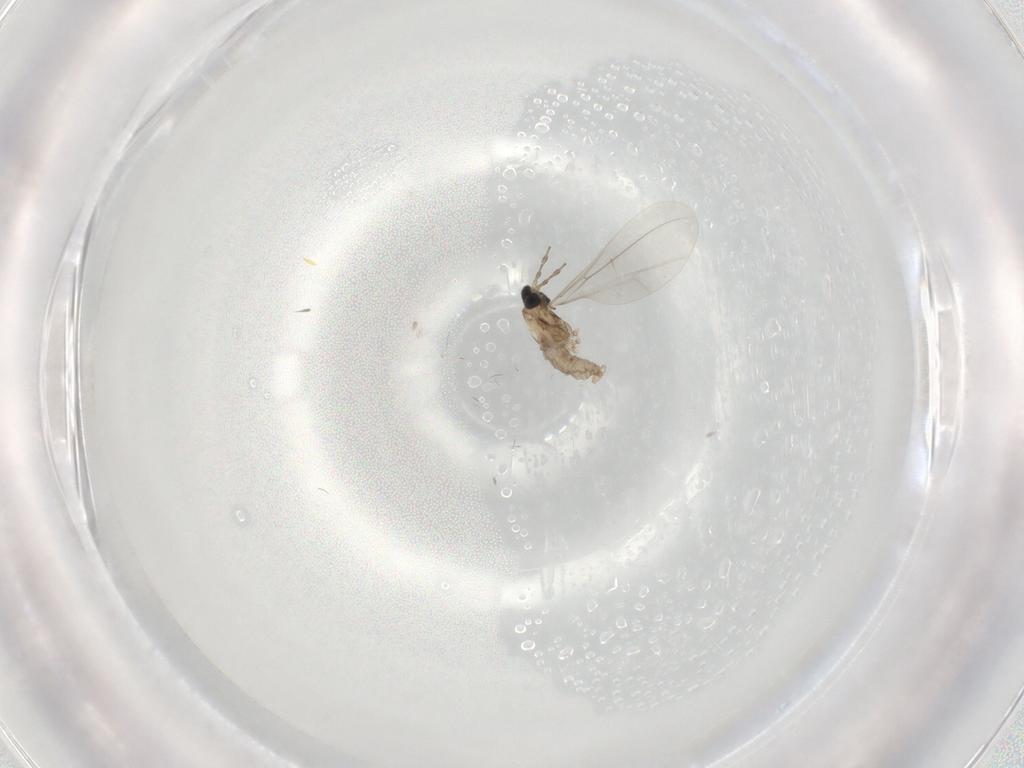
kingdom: Animalia
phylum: Arthropoda
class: Insecta
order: Diptera
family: Cecidomyiidae
